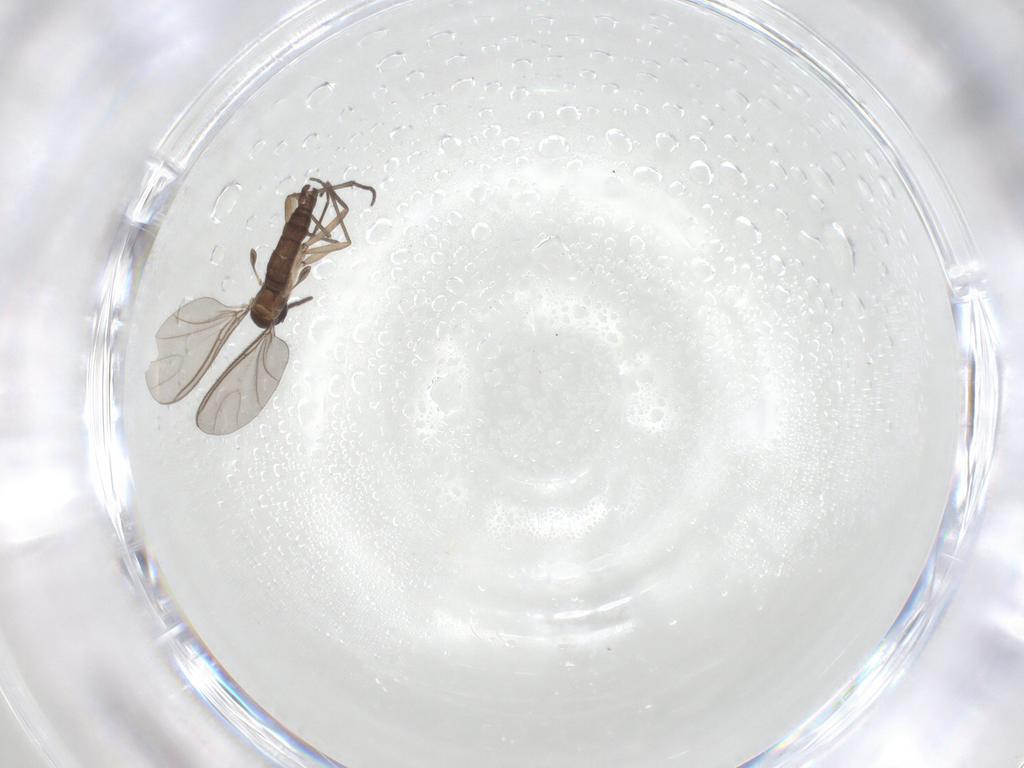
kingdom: Animalia
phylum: Arthropoda
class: Insecta
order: Diptera
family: Sciaridae
